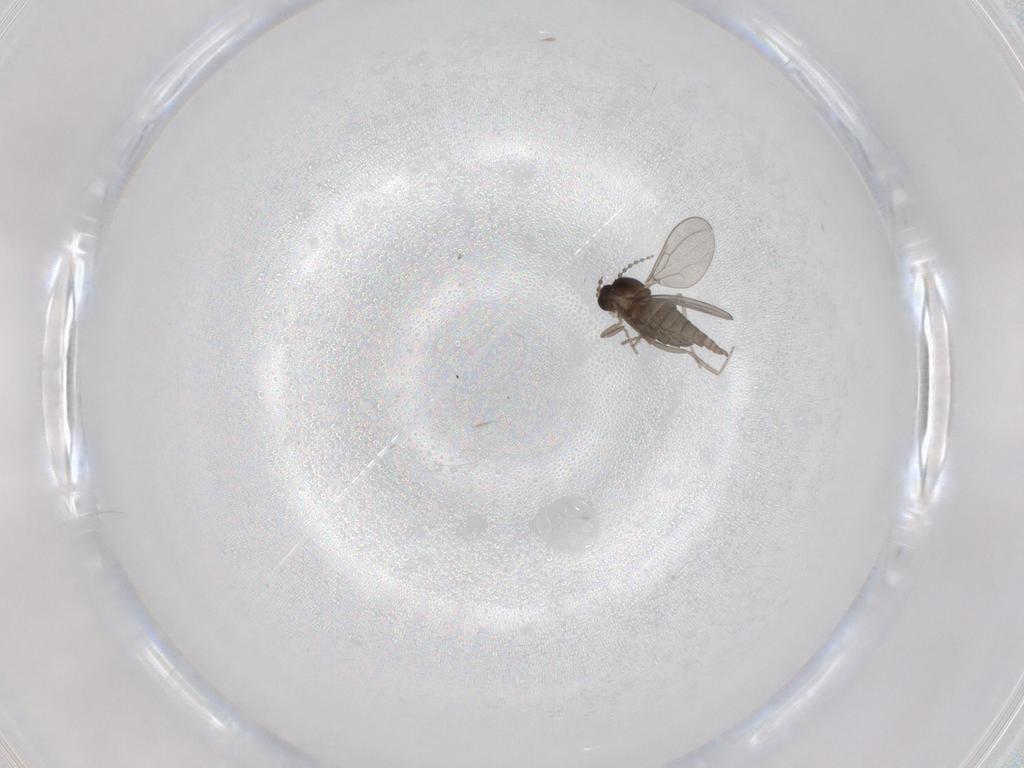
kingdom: Animalia
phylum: Arthropoda
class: Insecta
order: Diptera
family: Cecidomyiidae
